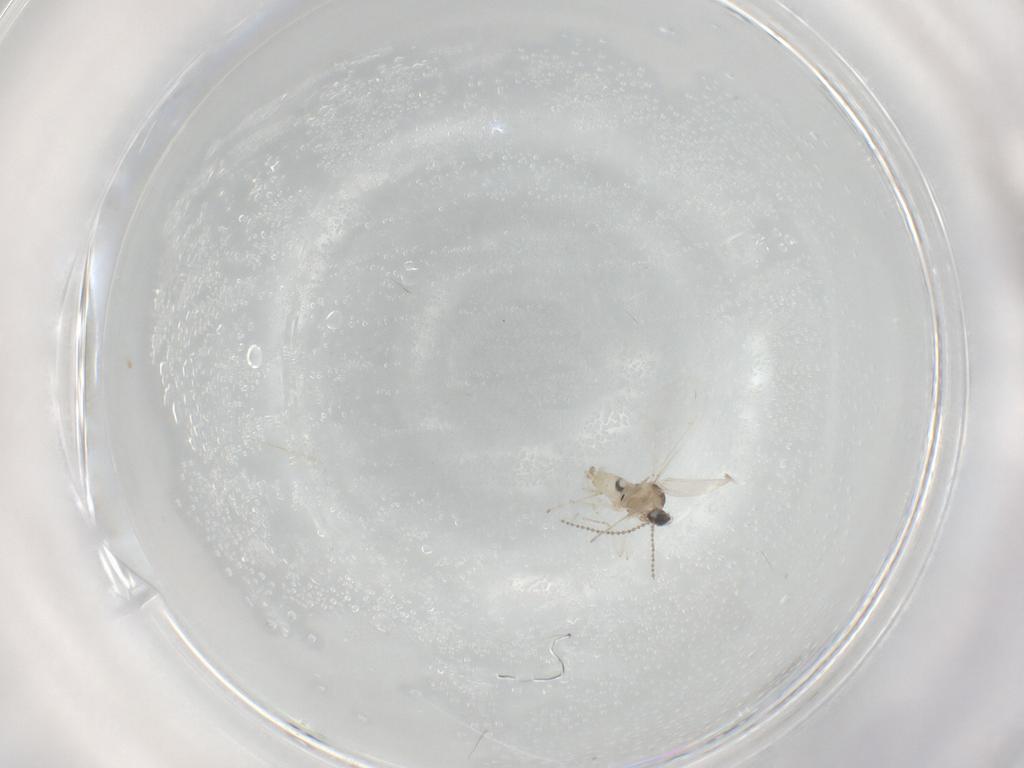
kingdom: Animalia
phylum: Arthropoda
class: Insecta
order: Diptera
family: Cecidomyiidae
